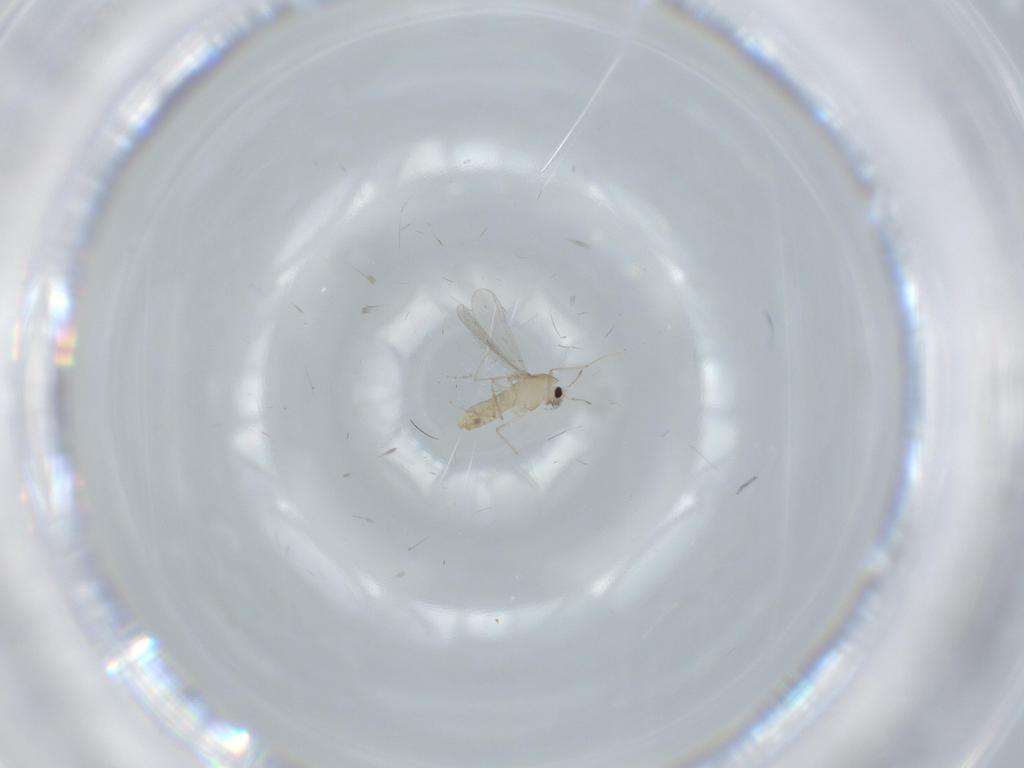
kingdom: Animalia
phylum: Arthropoda
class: Insecta
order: Diptera
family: Chironomidae
